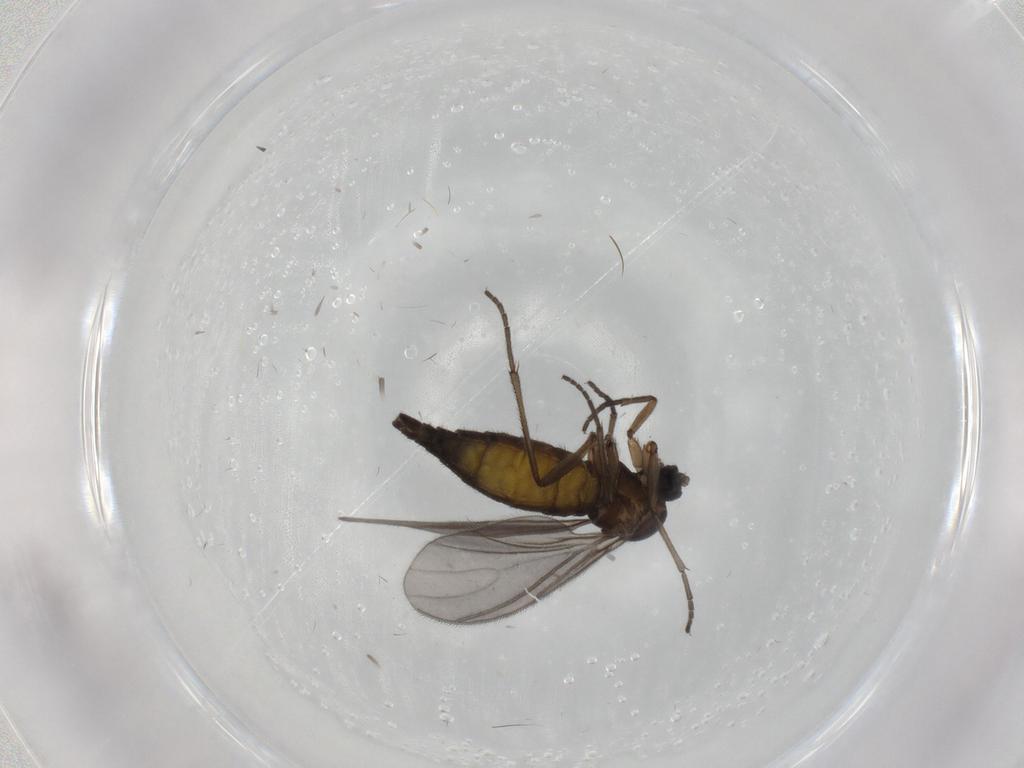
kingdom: Animalia
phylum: Arthropoda
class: Insecta
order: Diptera
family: Sciaridae
